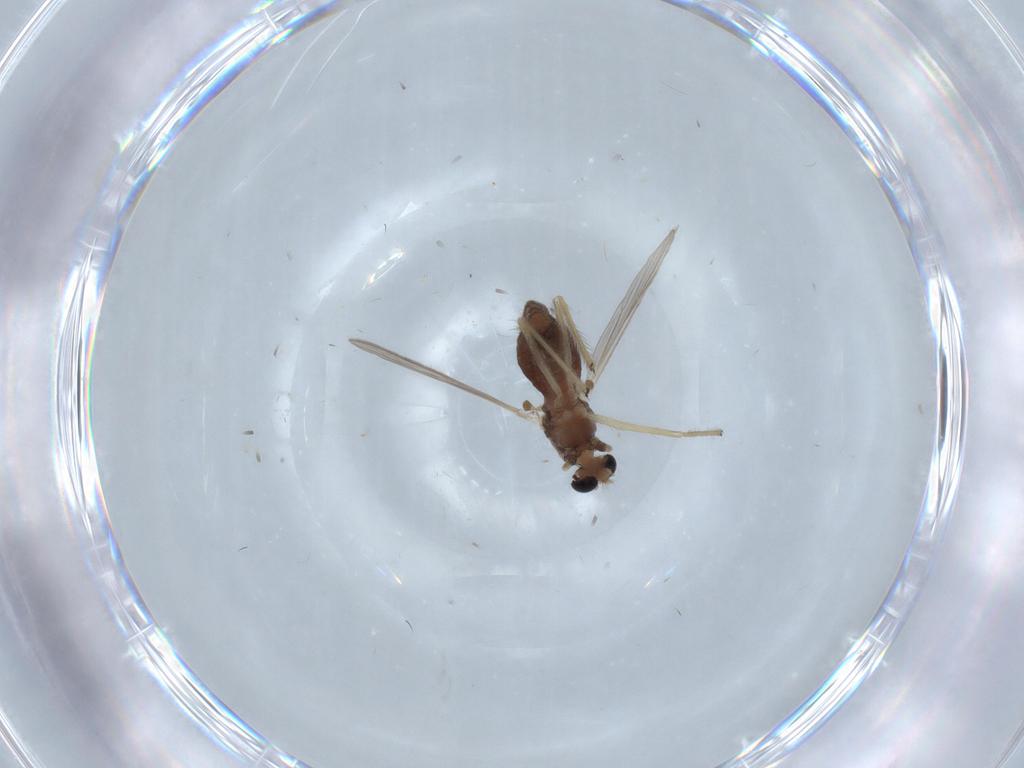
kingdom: Animalia
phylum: Arthropoda
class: Insecta
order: Diptera
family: Chironomidae
